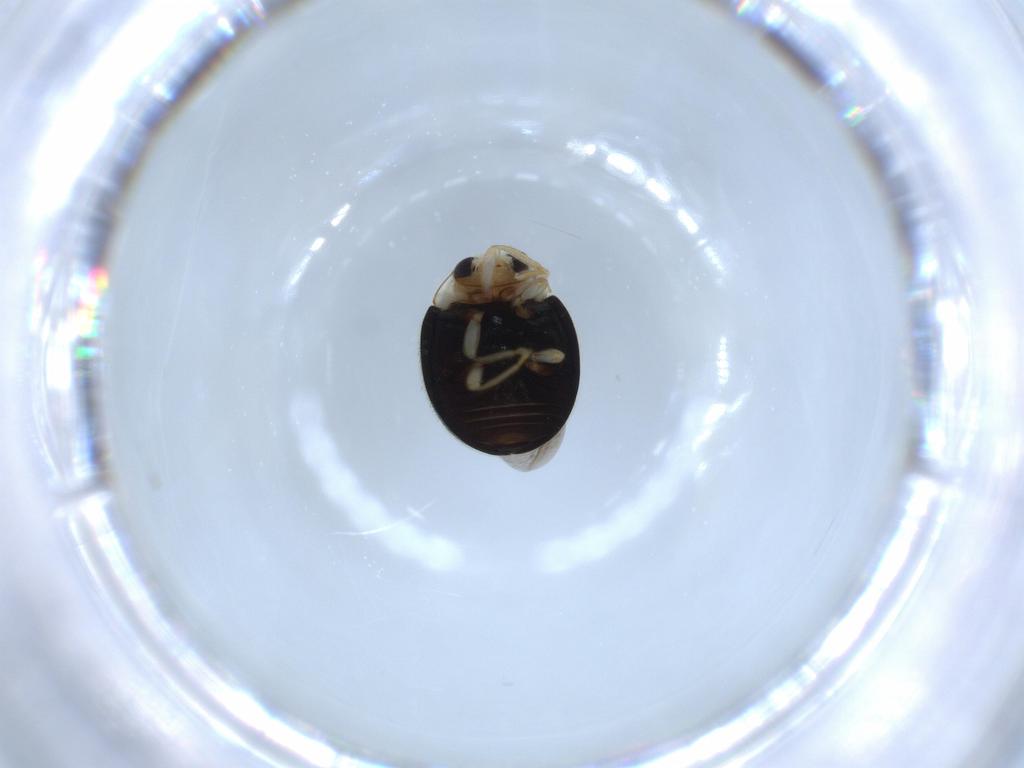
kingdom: Animalia
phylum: Arthropoda
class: Insecta
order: Coleoptera
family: Coccinellidae
